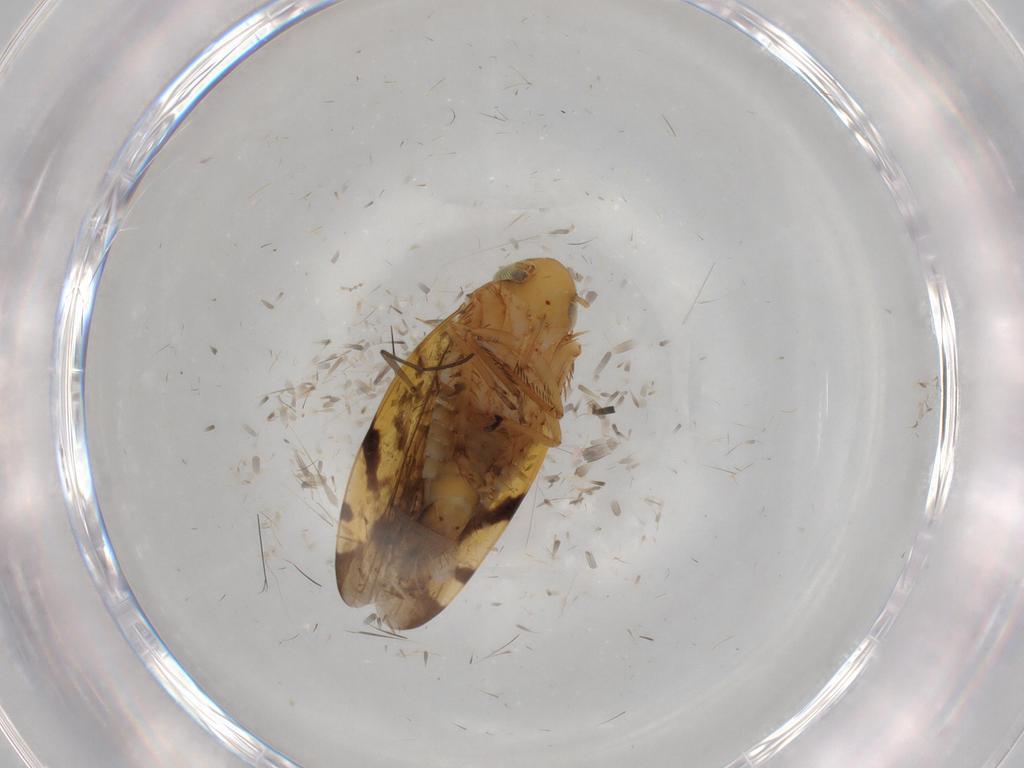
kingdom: Animalia
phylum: Arthropoda
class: Insecta
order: Hemiptera
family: Cicadellidae
